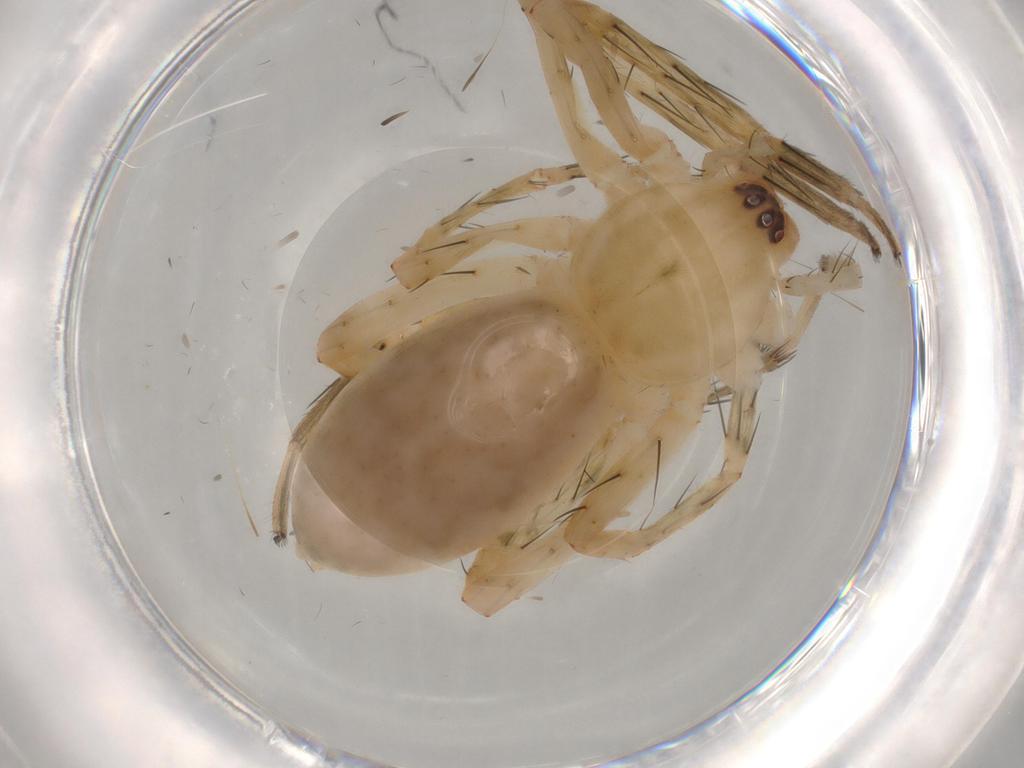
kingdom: Animalia
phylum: Arthropoda
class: Arachnida
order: Araneae
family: Anyphaenidae
